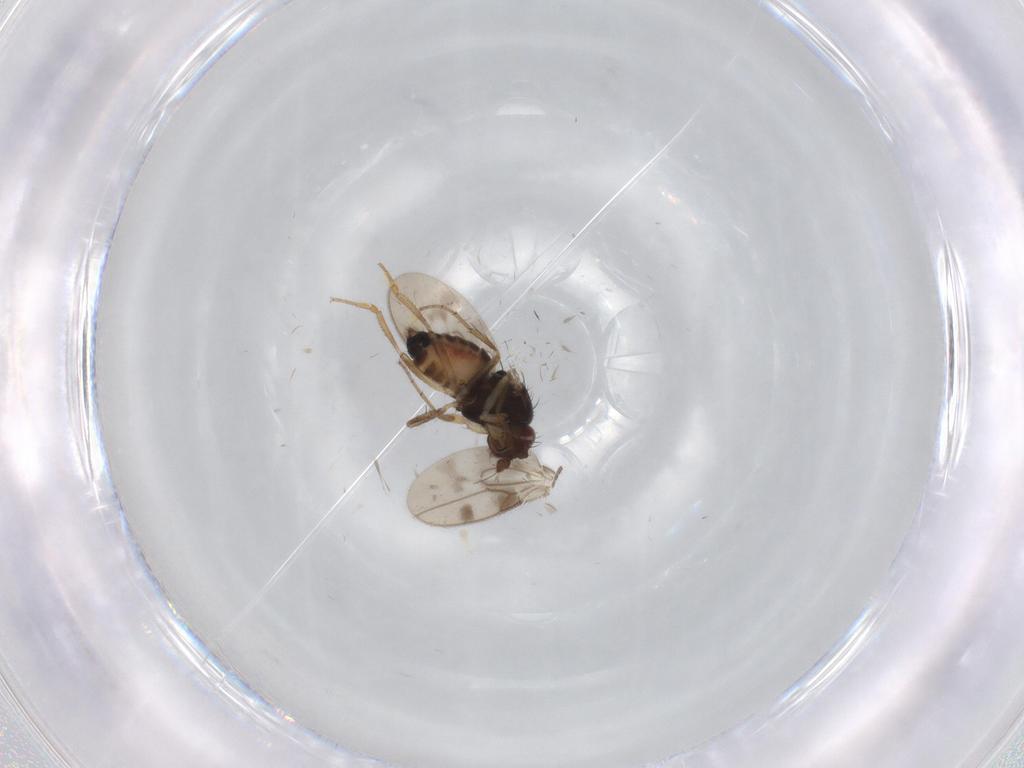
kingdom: Animalia
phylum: Arthropoda
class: Insecta
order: Diptera
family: Sphaeroceridae
